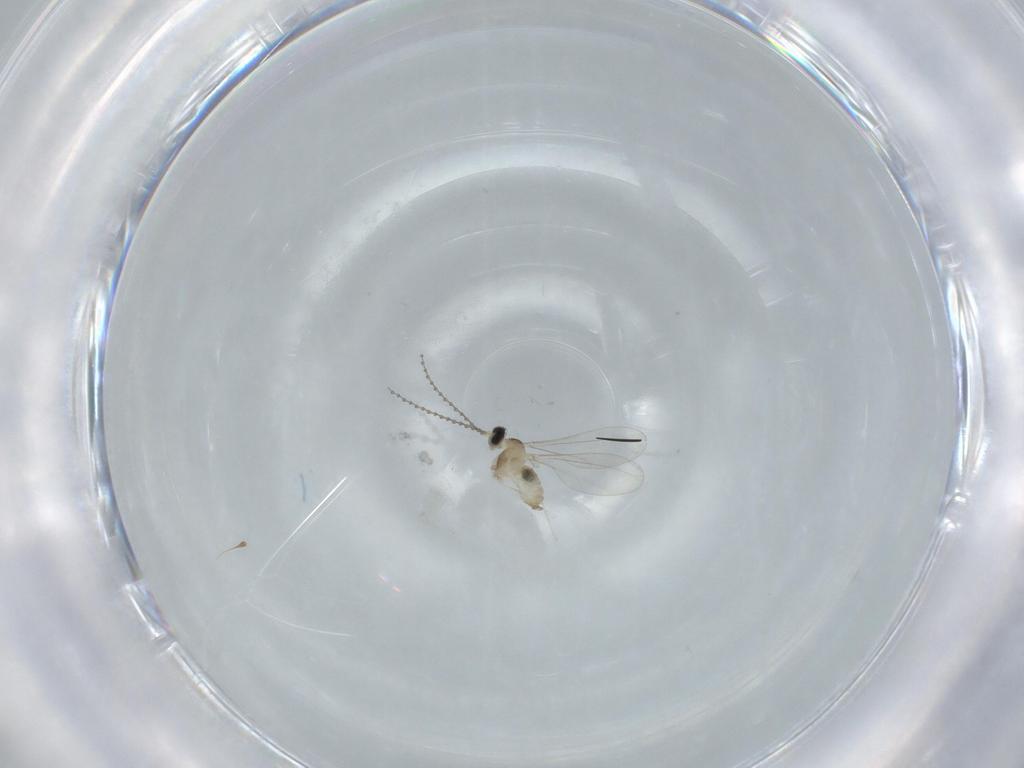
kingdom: Animalia
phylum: Arthropoda
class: Insecta
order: Diptera
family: Cecidomyiidae
